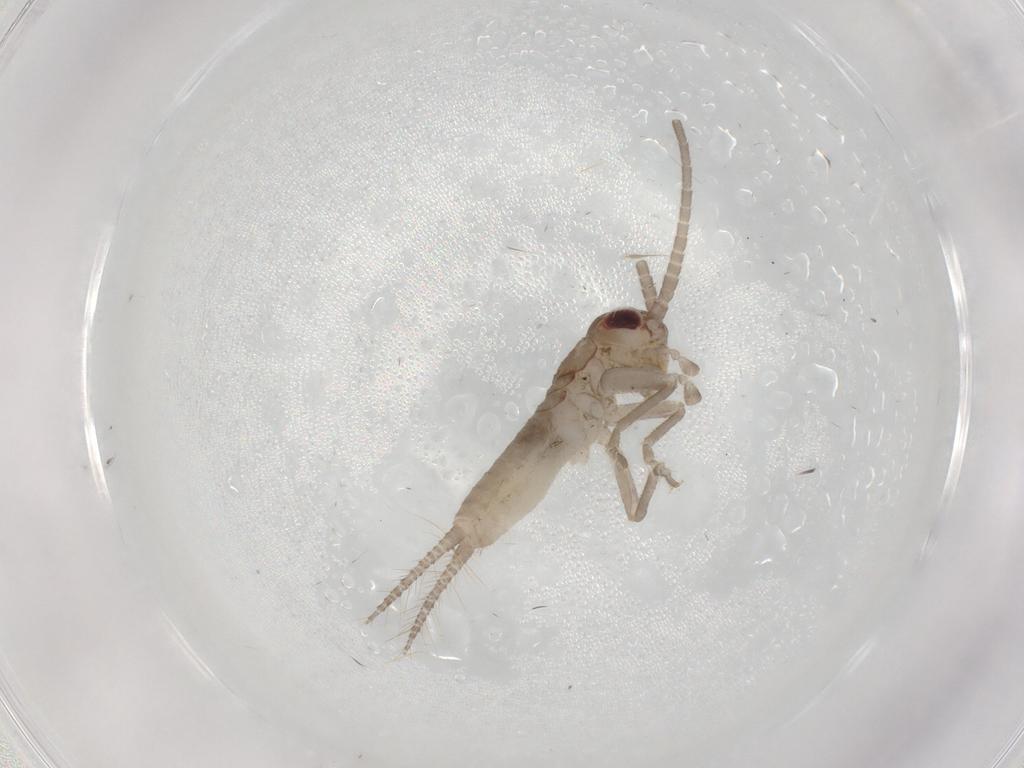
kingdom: Animalia
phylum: Arthropoda
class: Insecta
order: Orthoptera
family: Gryllidae
